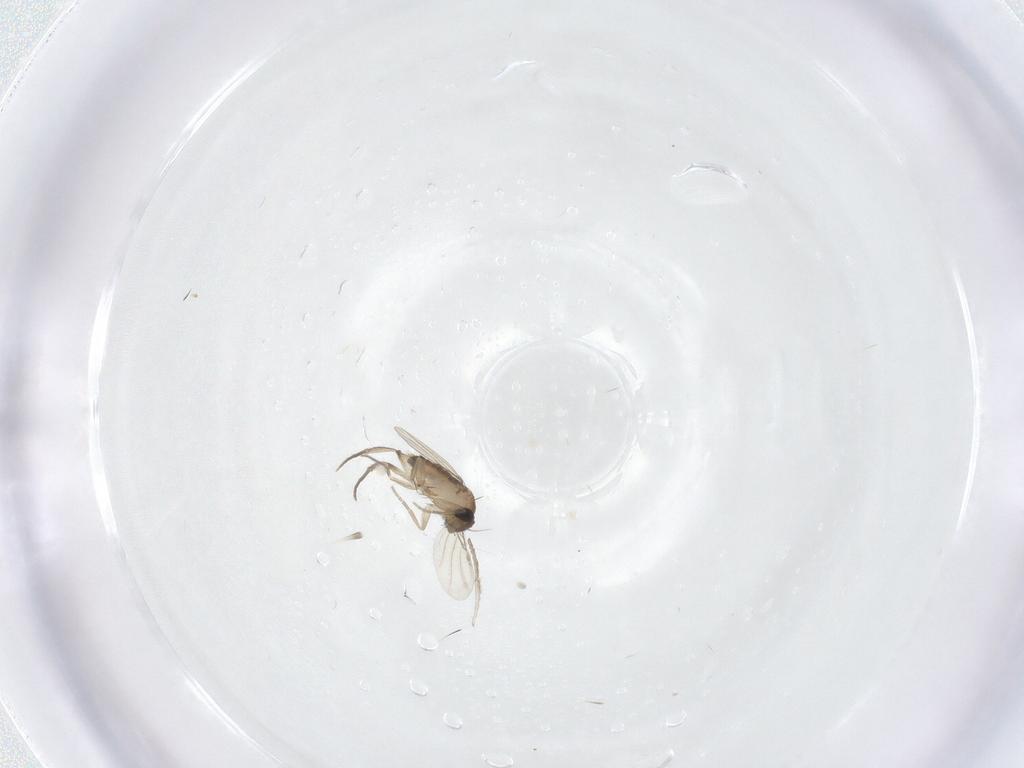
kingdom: Animalia
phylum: Arthropoda
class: Insecta
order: Diptera
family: Phoridae
